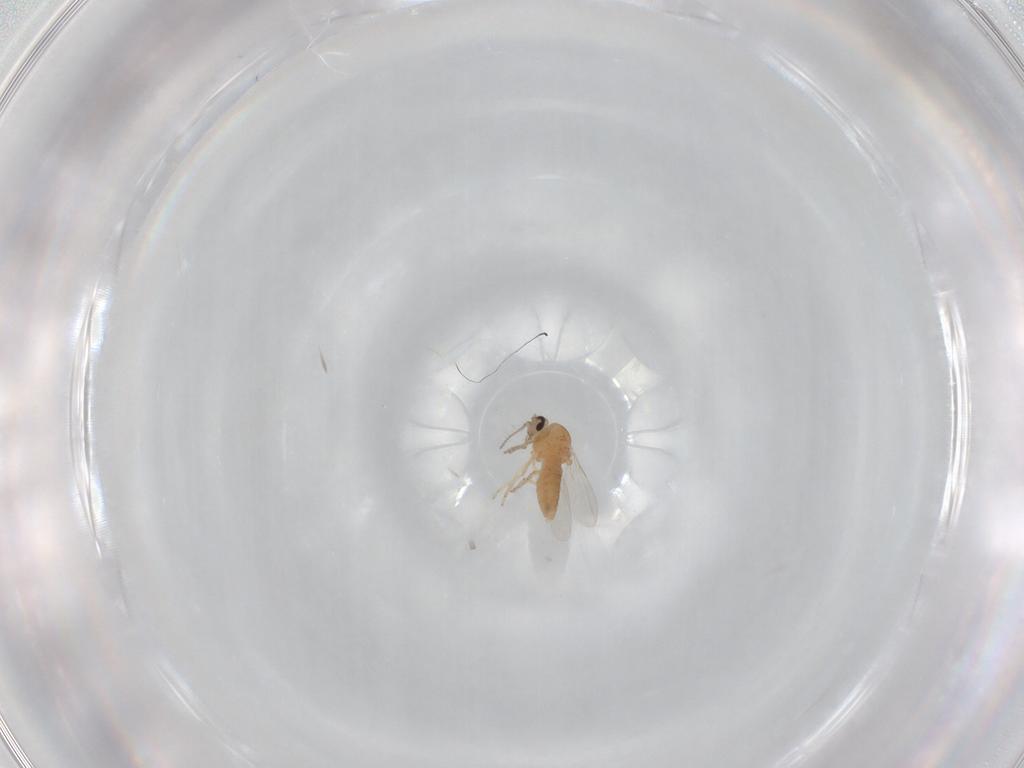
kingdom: Animalia
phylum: Arthropoda
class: Insecta
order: Diptera
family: Ceratopogonidae
